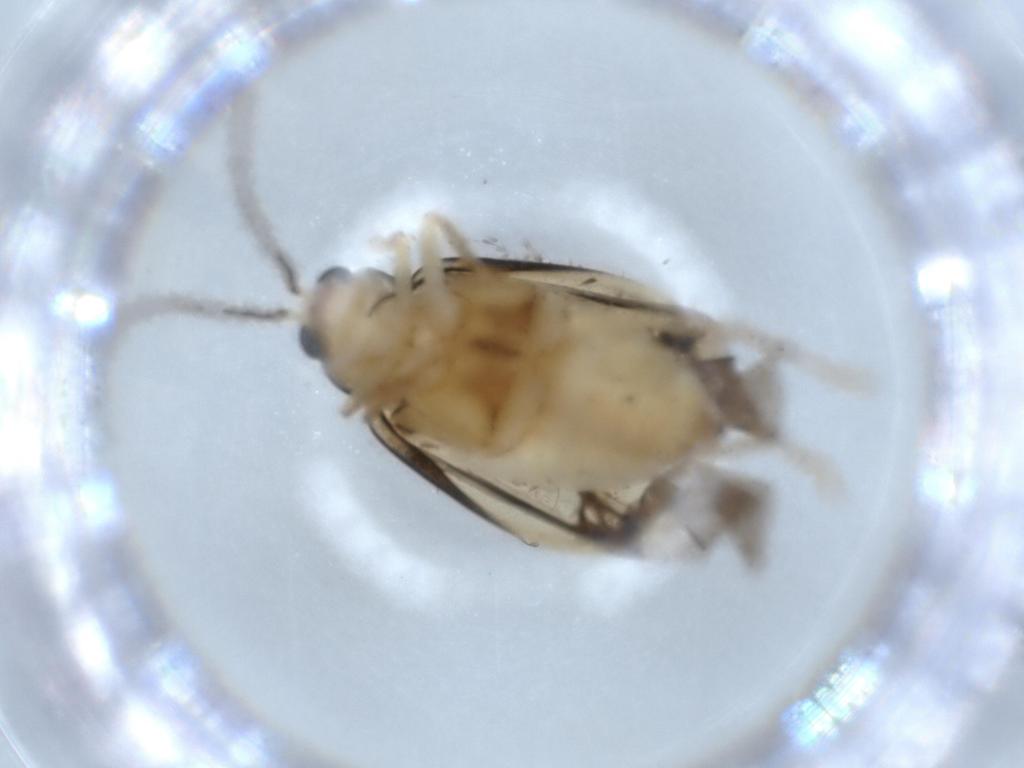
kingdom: Animalia
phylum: Arthropoda
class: Insecta
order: Coleoptera
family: Chrysomelidae
